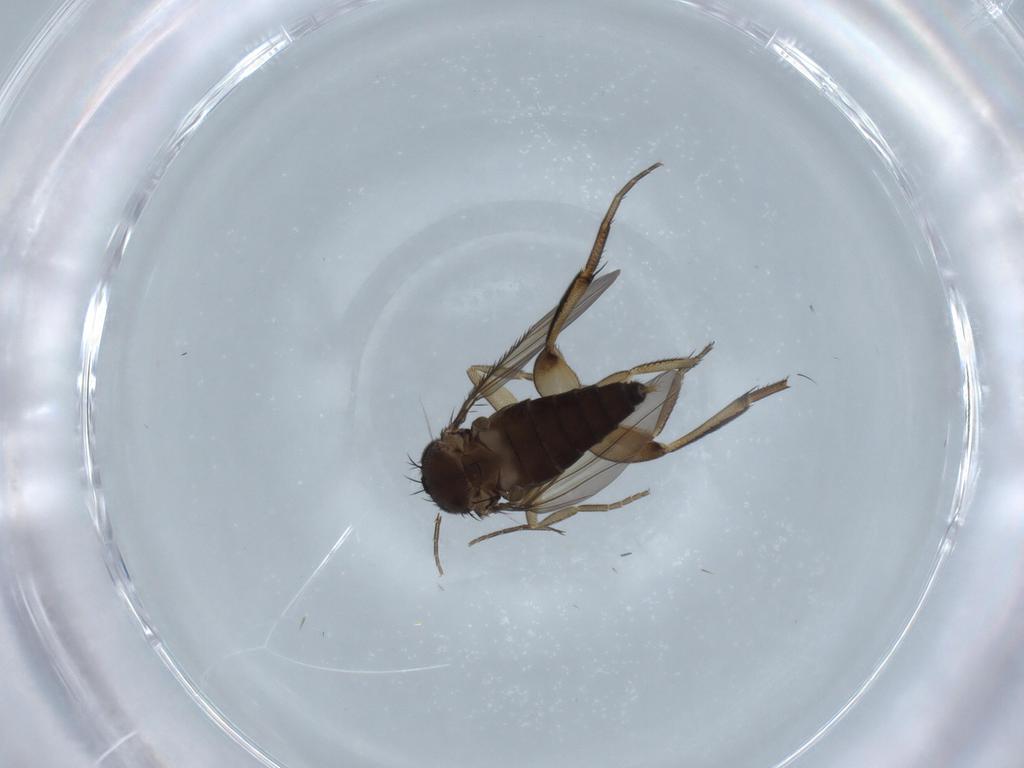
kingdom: Animalia
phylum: Arthropoda
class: Insecta
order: Diptera
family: Phoridae
